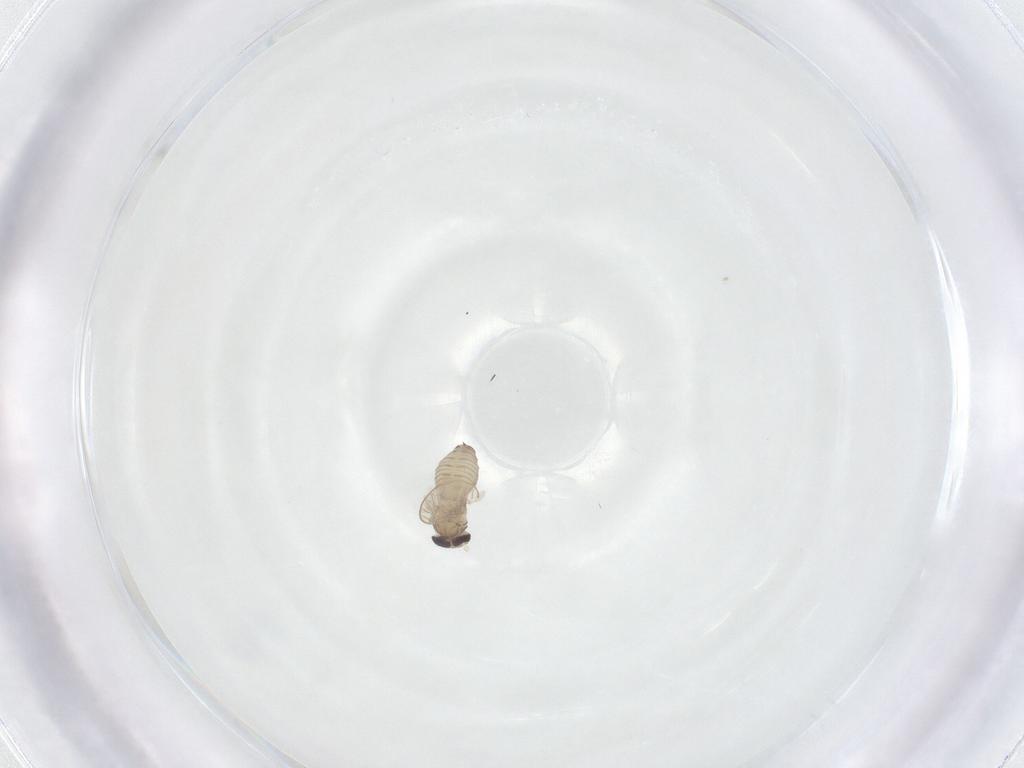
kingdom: Animalia
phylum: Arthropoda
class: Insecta
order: Diptera
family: Psychodidae
